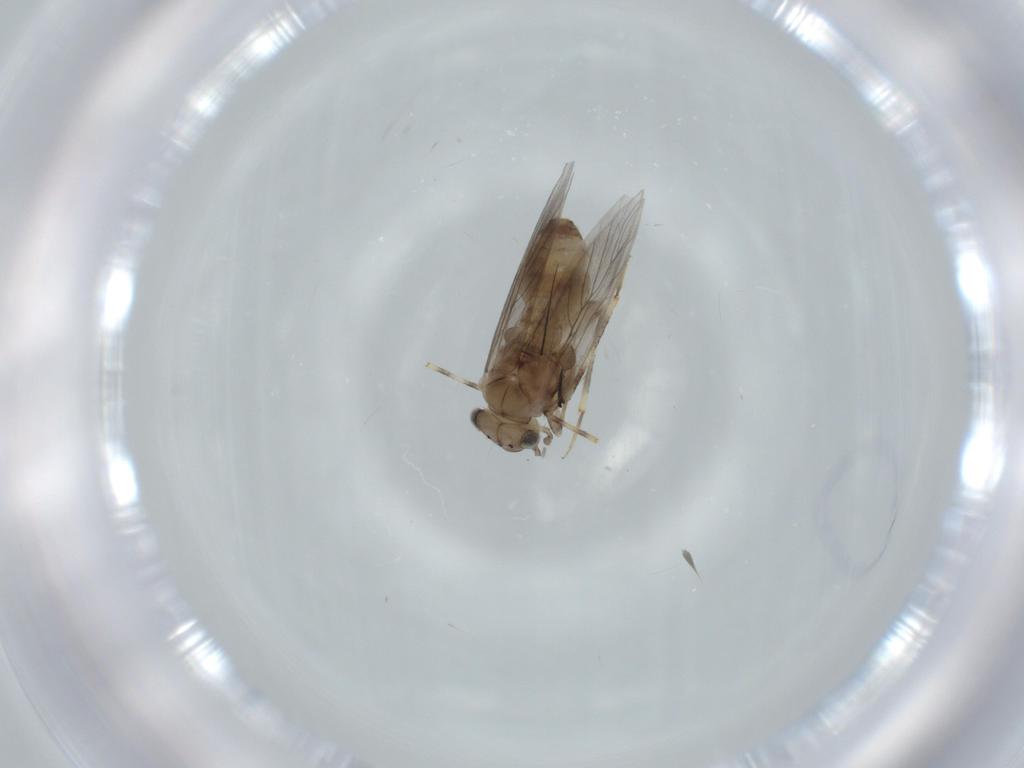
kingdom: Animalia
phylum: Arthropoda
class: Insecta
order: Psocodea
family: Lepidopsocidae
